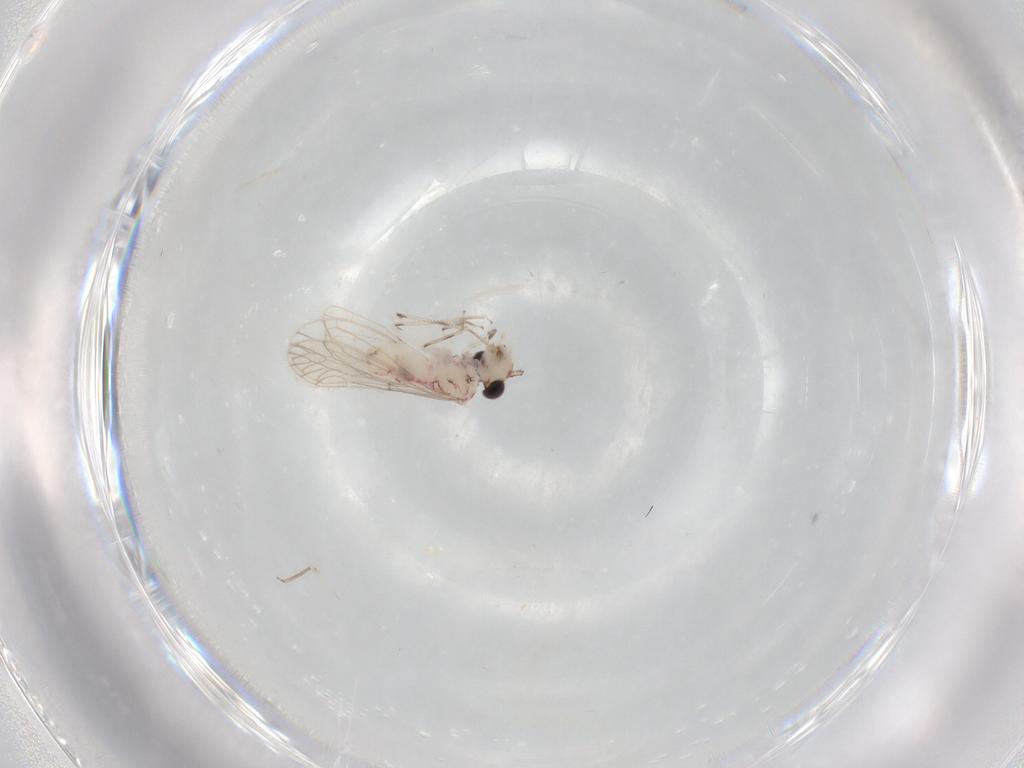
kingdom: Animalia
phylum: Arthropoda
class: Insecta
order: Psocodea
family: Caeciliusidae
